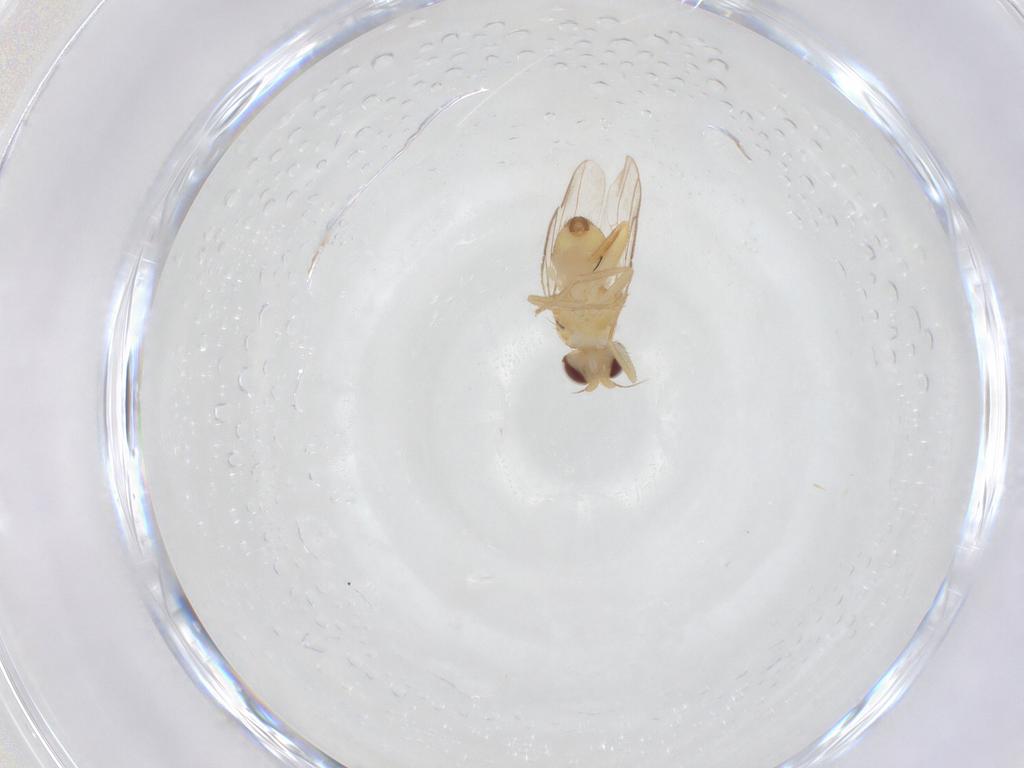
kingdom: Animalia
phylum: Arthropoda
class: Insecta
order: Diptera
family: Chloropidae
